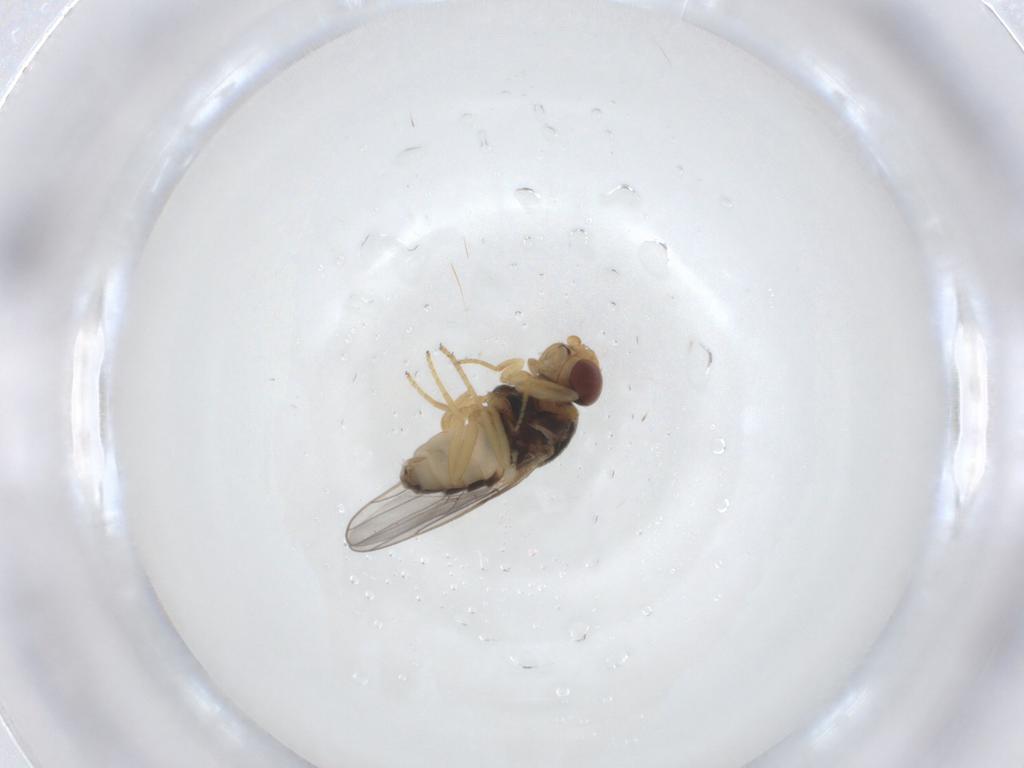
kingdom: Animalia
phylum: Arthropoda
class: Insecta
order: Diptera
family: Chloropidae
